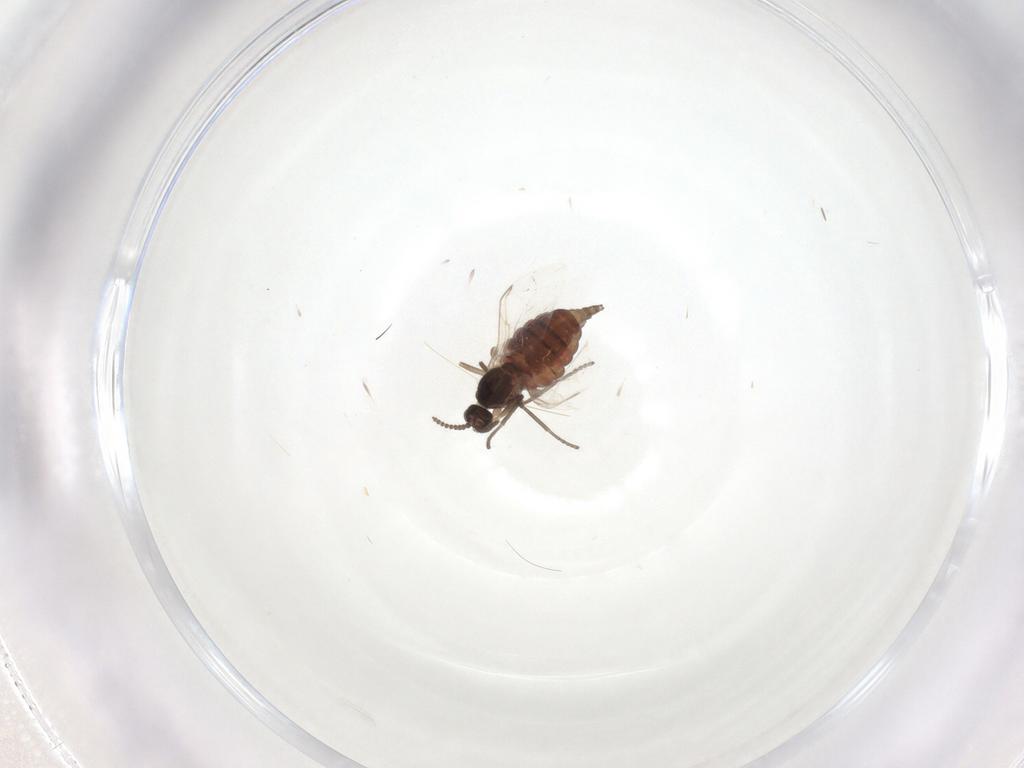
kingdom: Animalia
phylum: Arthropoda
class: Insecta
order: Diptera
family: Cecidomyiidae
